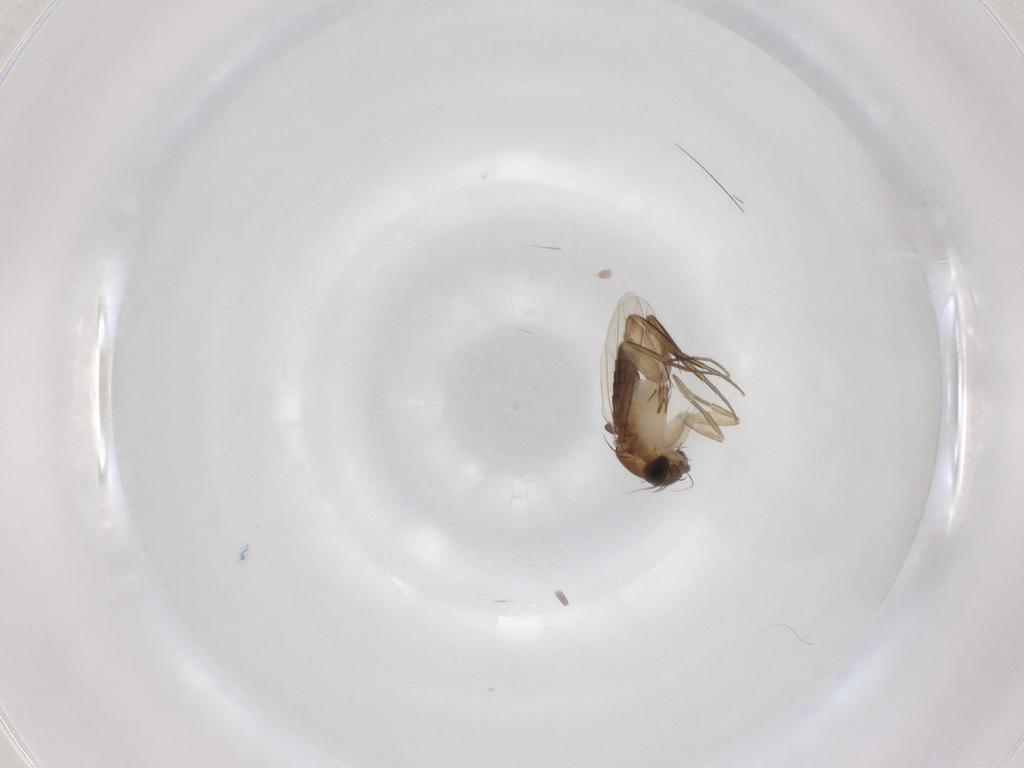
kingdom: Animalia
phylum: Arthropoda
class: Insecta
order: Diptera
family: Phoridae
